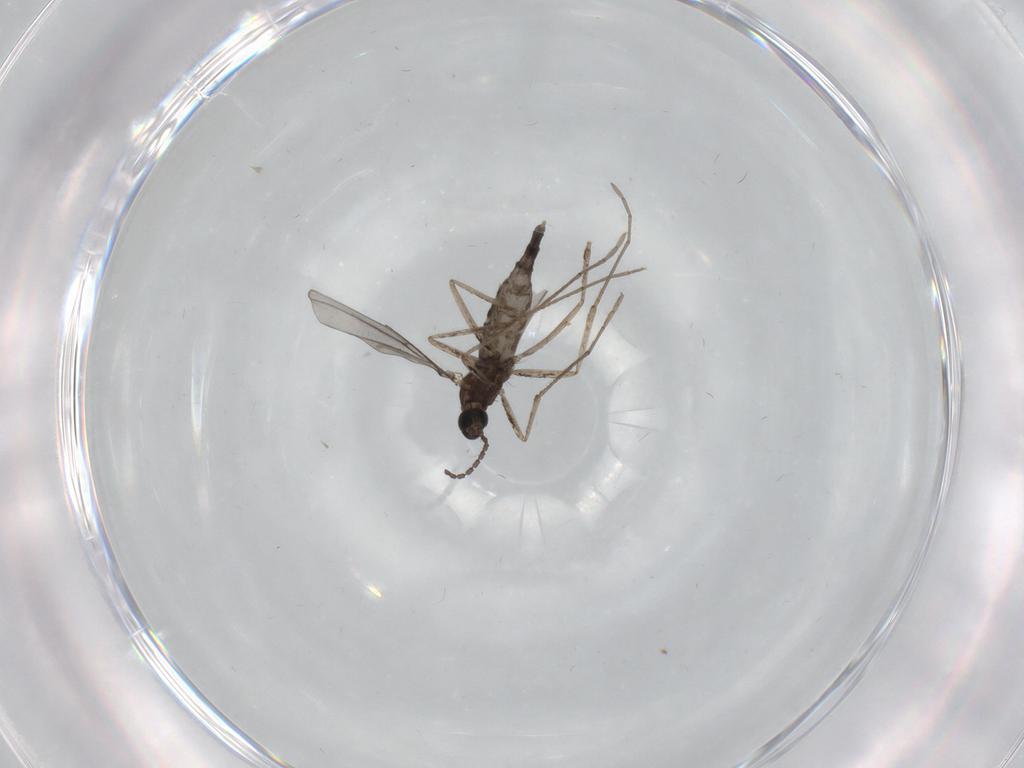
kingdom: Animalia
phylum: Arthropoda
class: Insecta
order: Diptera
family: Cecidomyiidae
